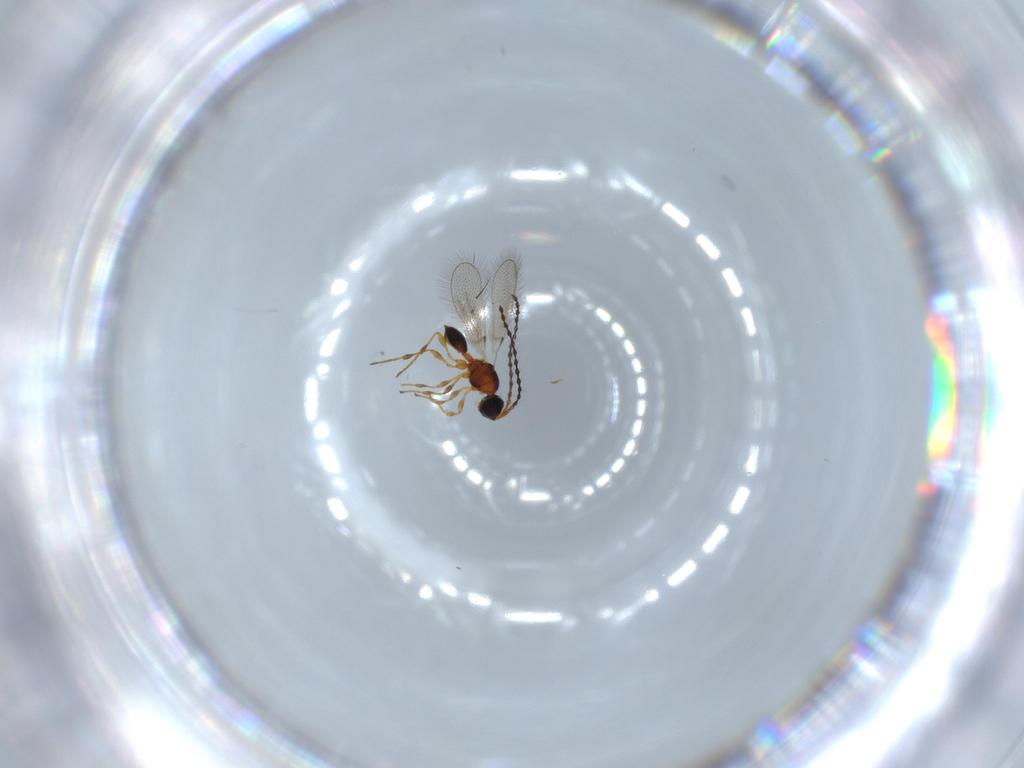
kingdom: Animalia
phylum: Arthropoda
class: Insecta
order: Hymenoptera
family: Diapriidae
